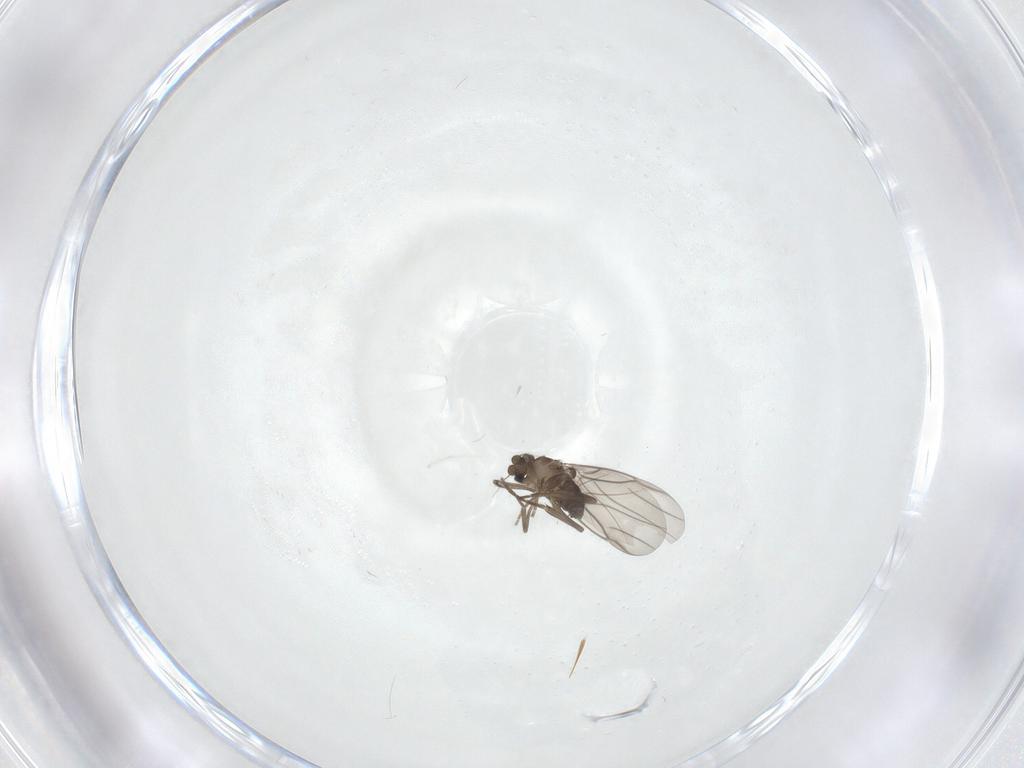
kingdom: Animalia
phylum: Arthropoda
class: Insecta
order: Diptera
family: Phoridae
